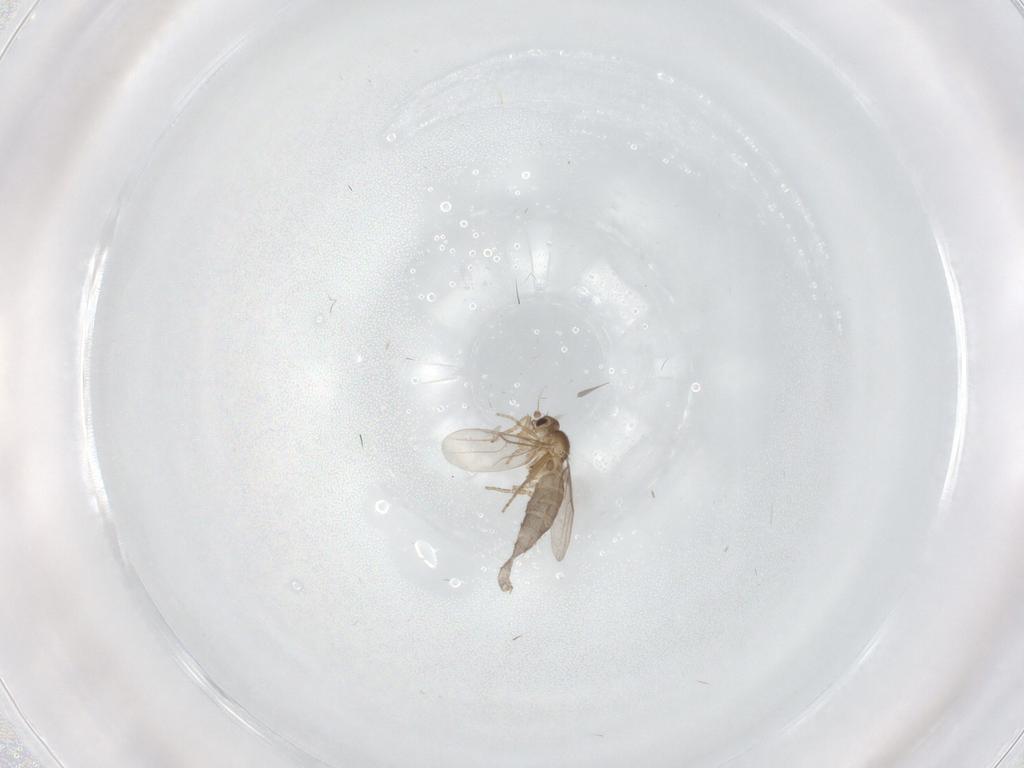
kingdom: Animalia
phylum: Arthropoda
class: Insecta
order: Diptera
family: Phoridae
